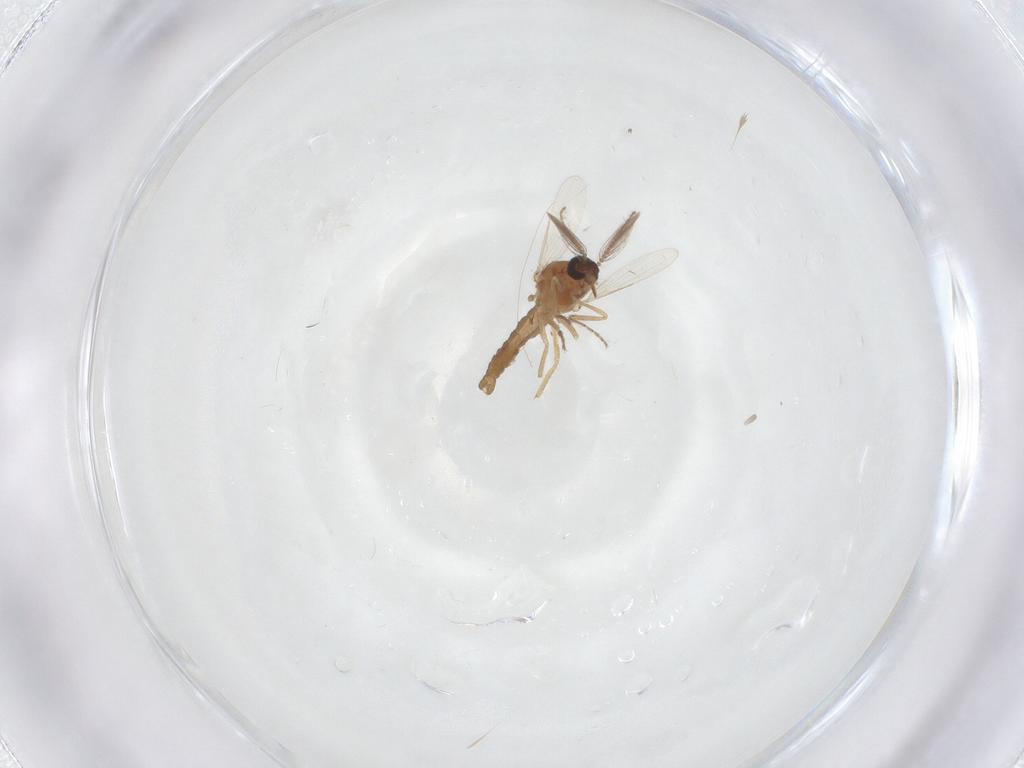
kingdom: Animalia
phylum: Arthropoda
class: Insecta
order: Diptera
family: Ceratopogonidae
